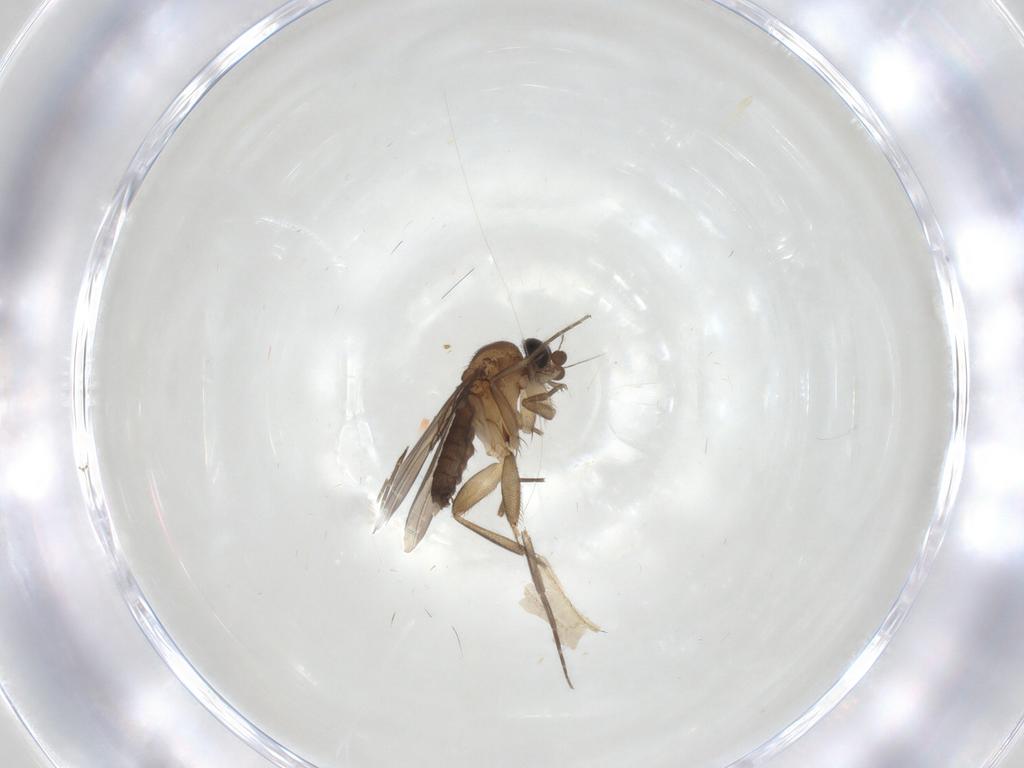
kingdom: Animalia
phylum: Arthropoda
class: Insecta
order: Diptera
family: Phoridae
